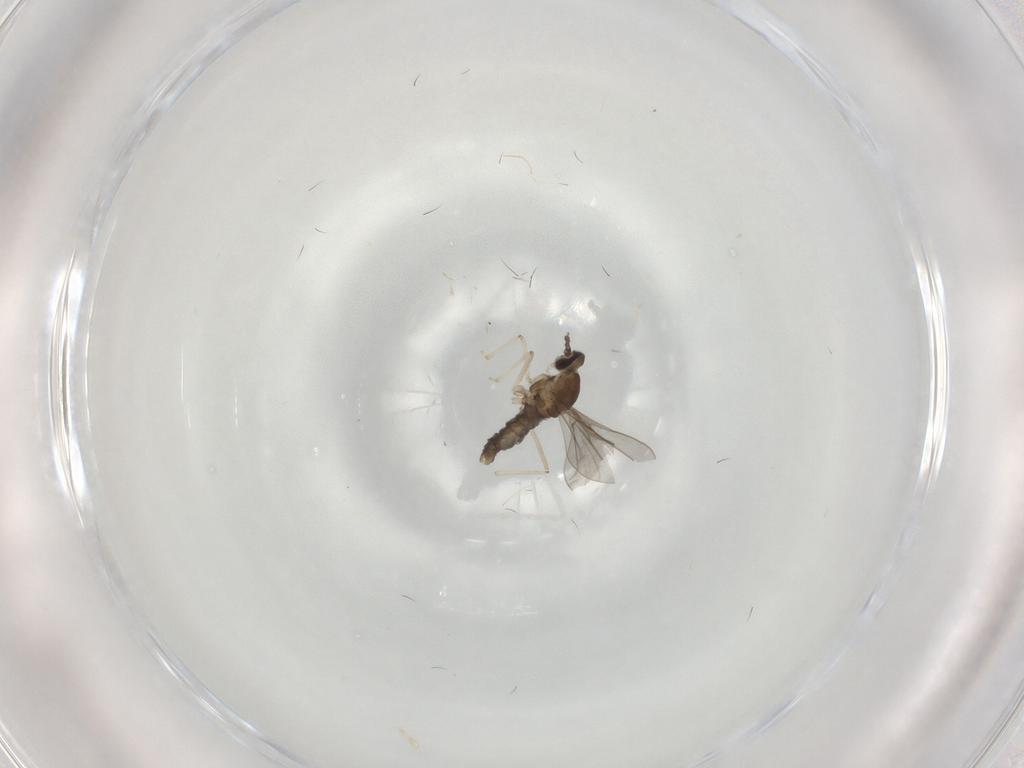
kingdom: Animalia
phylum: Arthropoda
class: Insecta
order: Diptera
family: Cecidomyiidae
